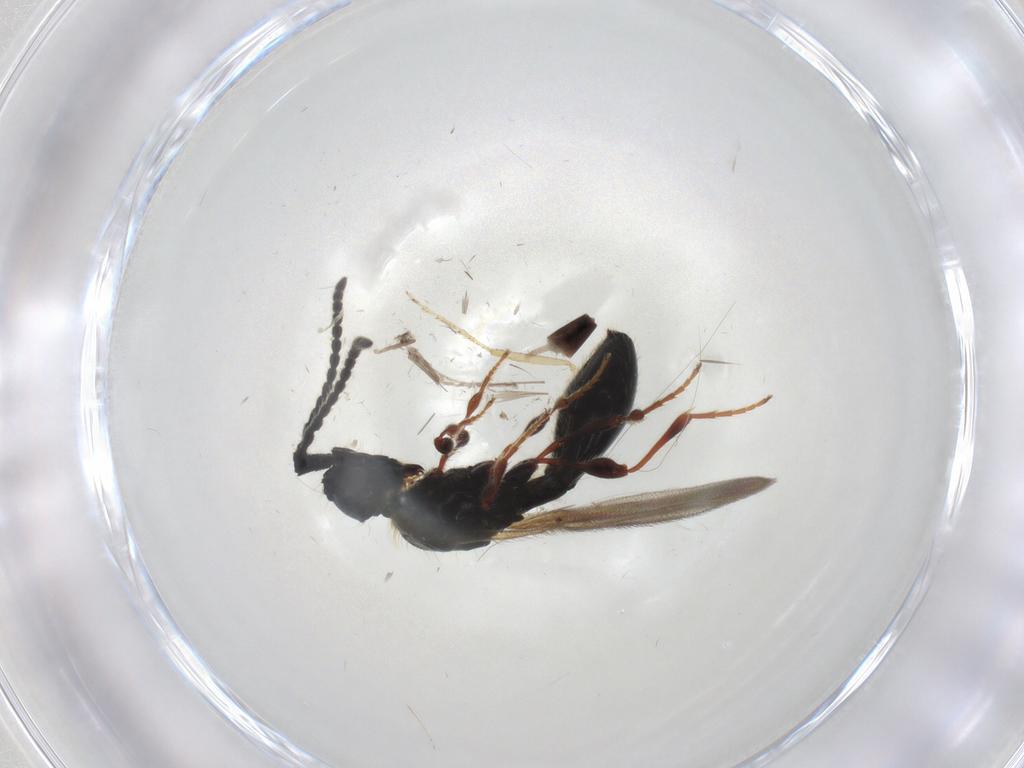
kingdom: Animalia
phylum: Arthropoda
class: Insecta
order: Hymenoptera
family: Diapriidae
